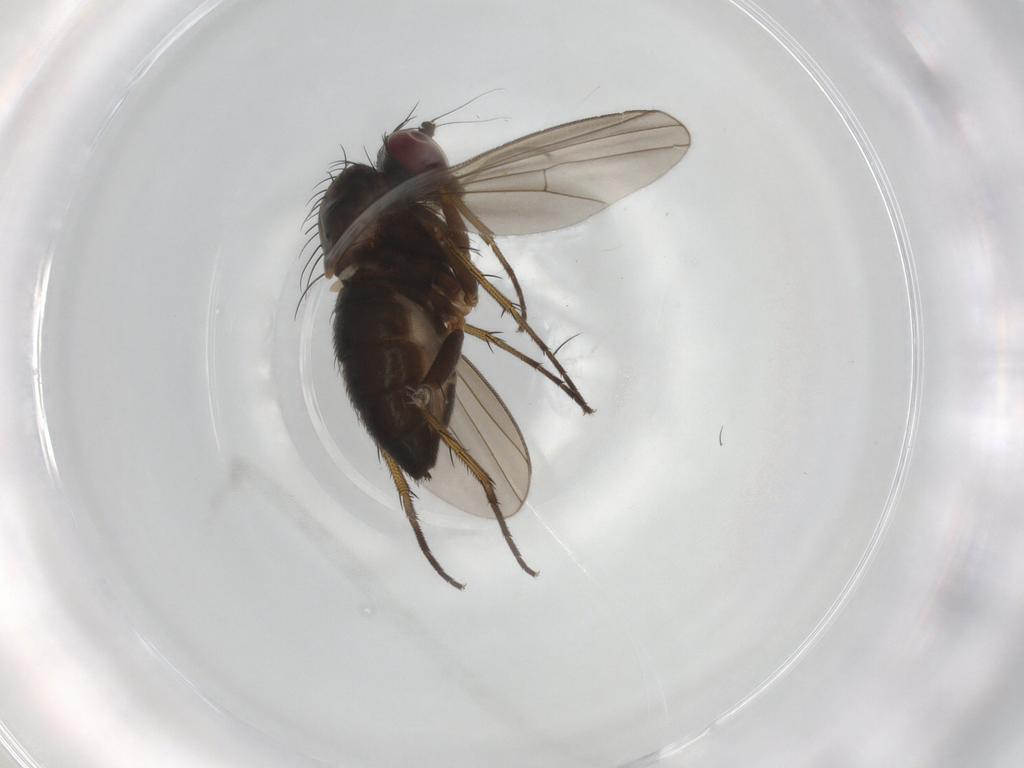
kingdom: Animalia
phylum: Arthropoda
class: Insecta
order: Diptera
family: Dolichopodidae
